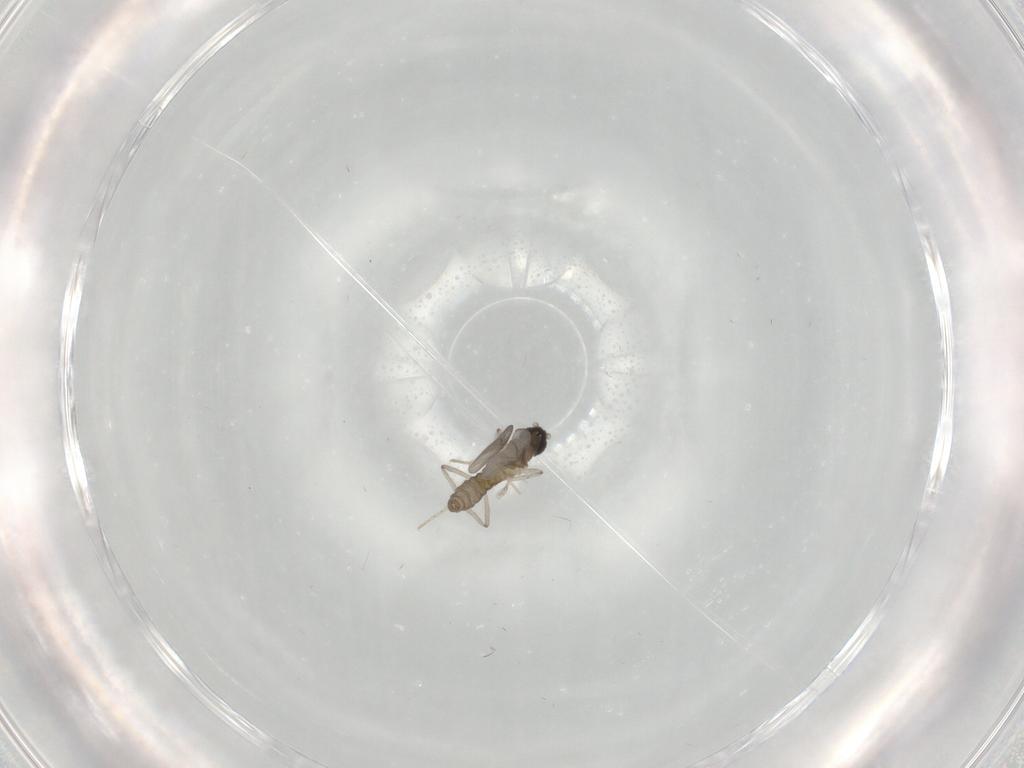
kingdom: Animalia
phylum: Arthropoda
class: Insecta
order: Diptera
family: Cecidomyiidae
